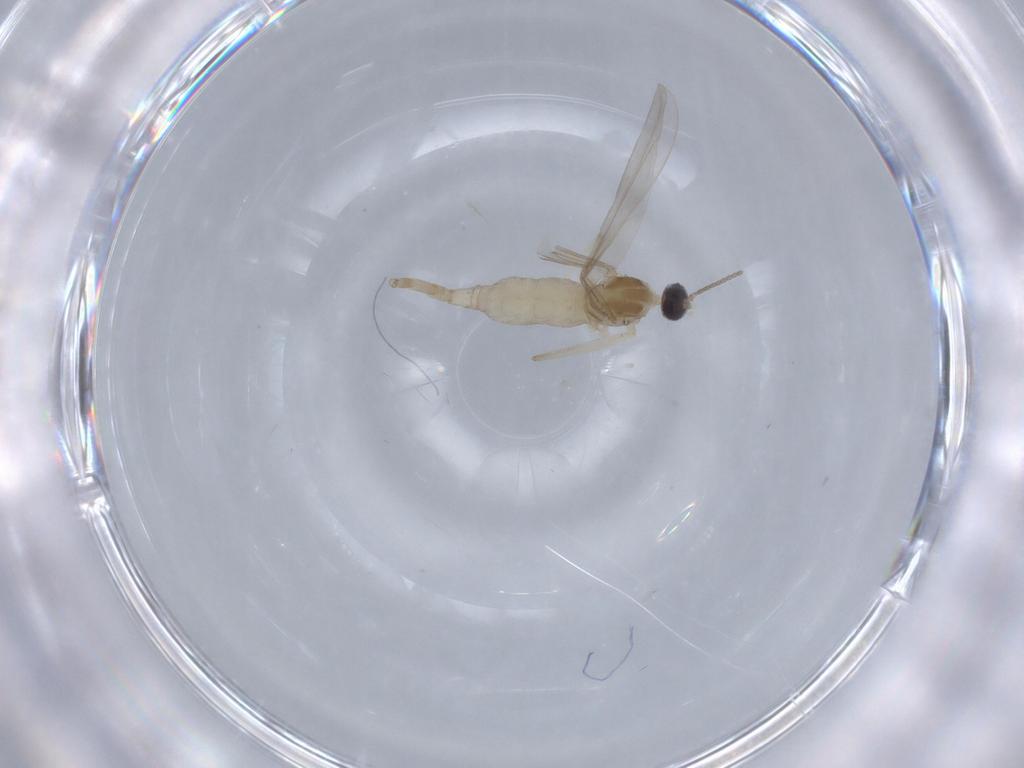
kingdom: Animalia
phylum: Arthropoda
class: Insecta
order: Diptera
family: Cecidomyiidae
